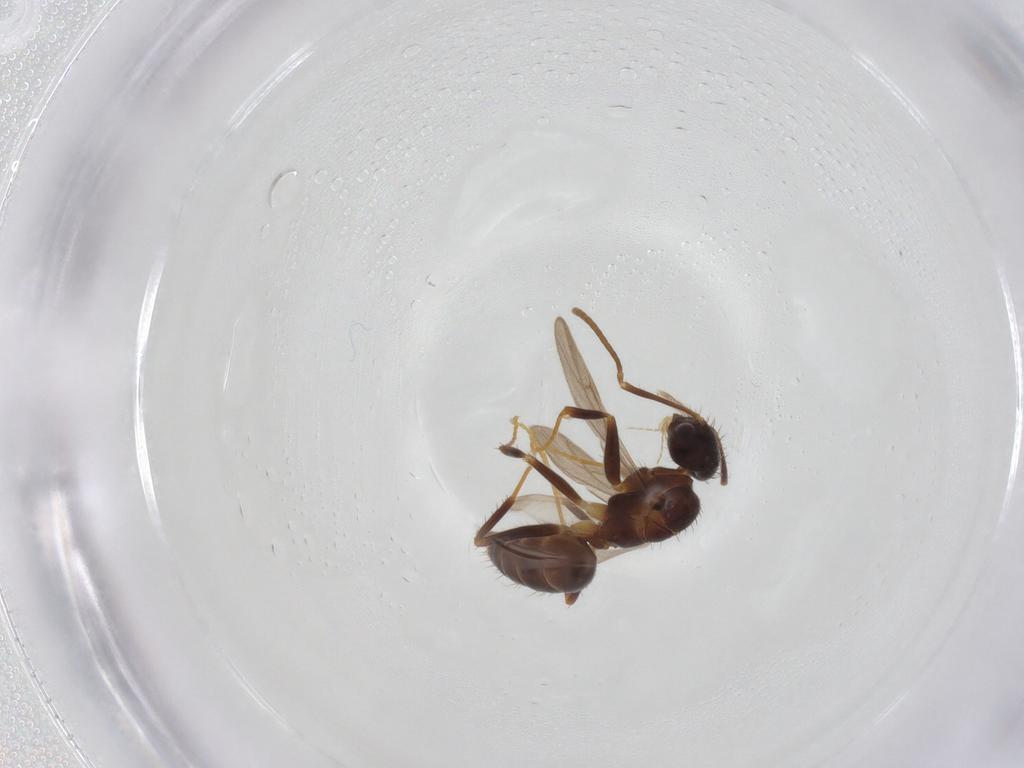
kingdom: Animalia
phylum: Arthropoda
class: Insecta
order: Hymenoptera
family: Formicidae
